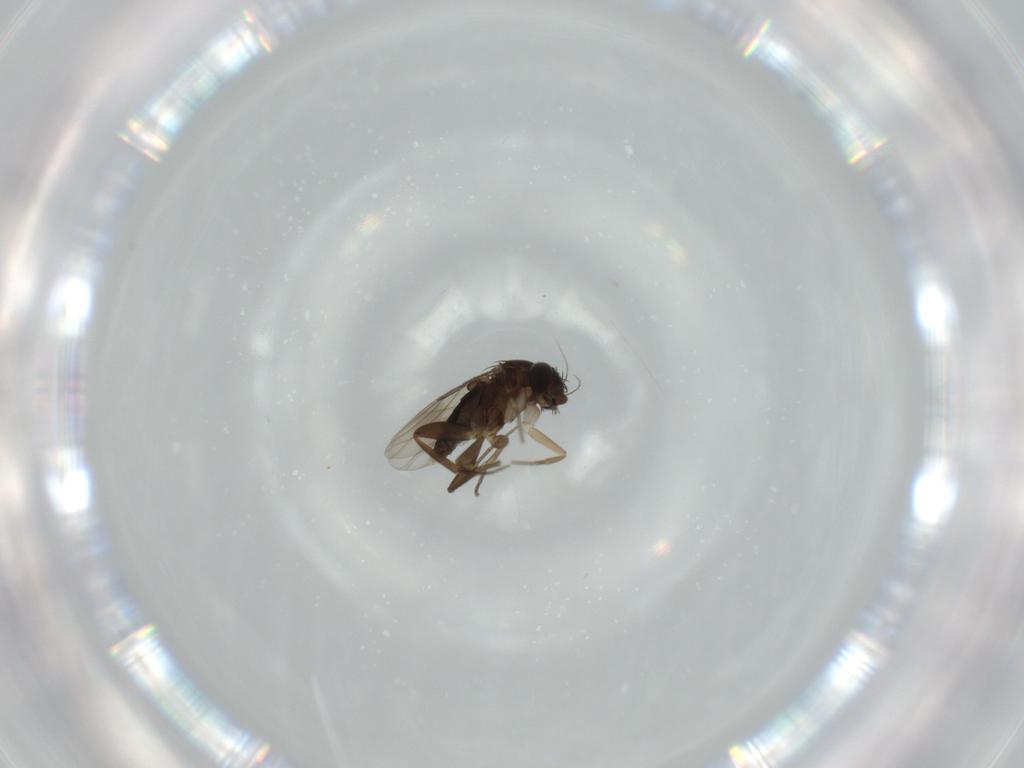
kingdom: Animalia
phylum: Arthropoda
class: Insecta
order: Diptera
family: Phoridae
